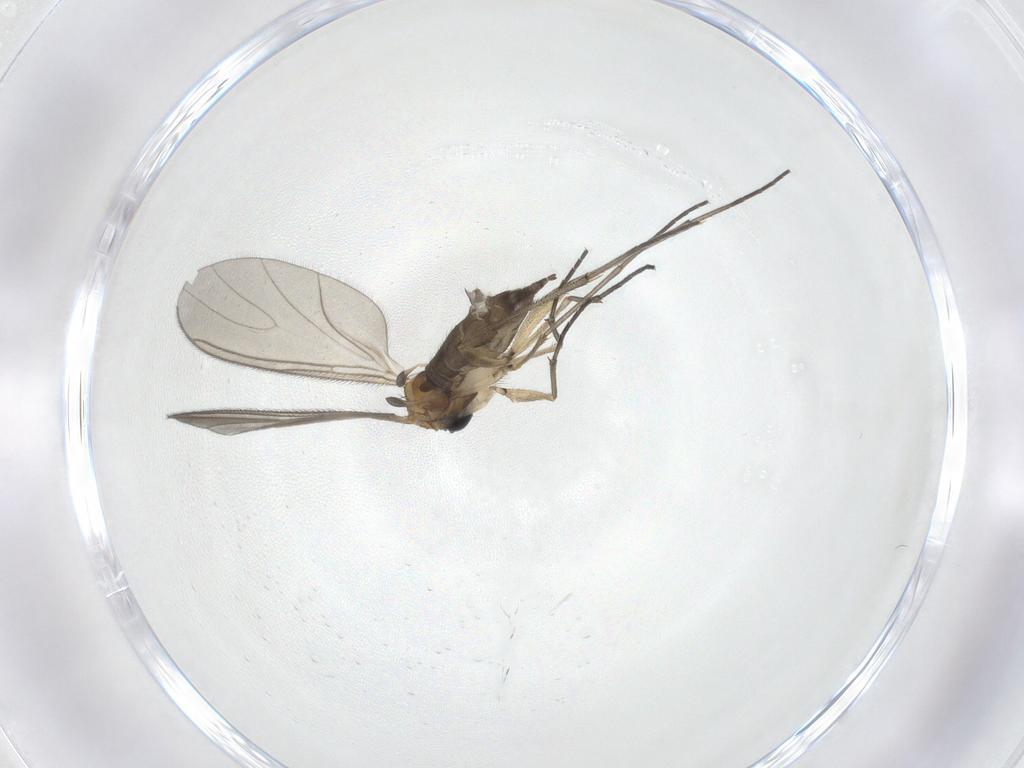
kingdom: Animalia
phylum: Arthropoda
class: Insecta
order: Diptera
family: Sciaridae
